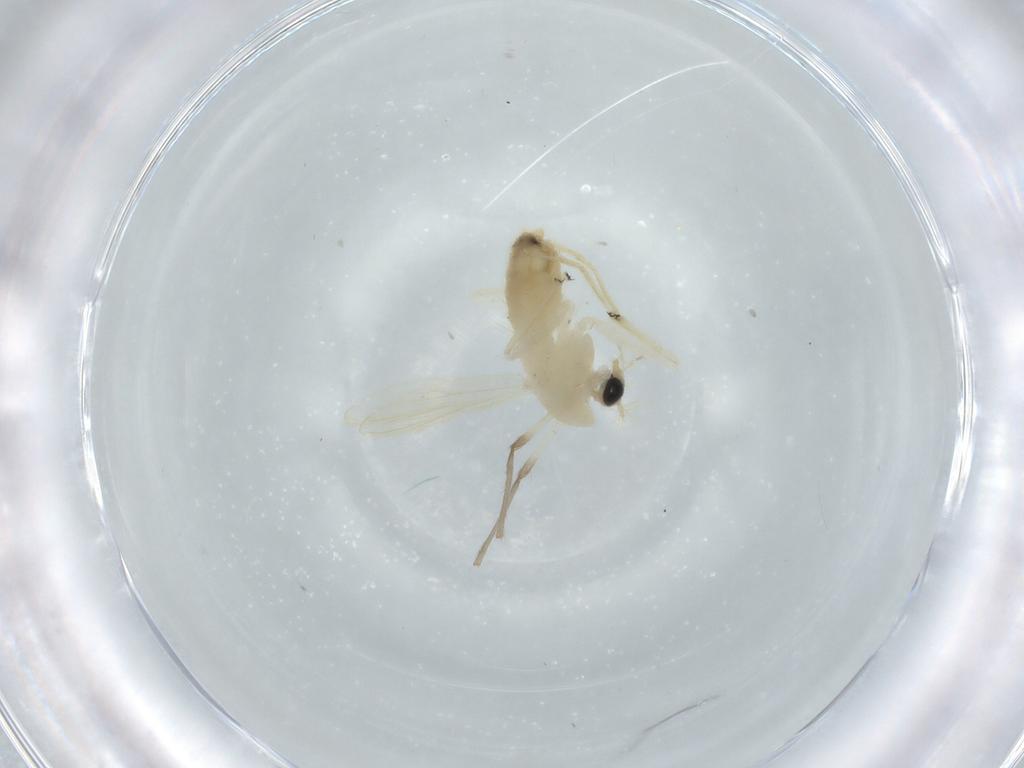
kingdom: Animalia
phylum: Arthropoda
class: Insecta
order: Diptera
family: Chironomidae
